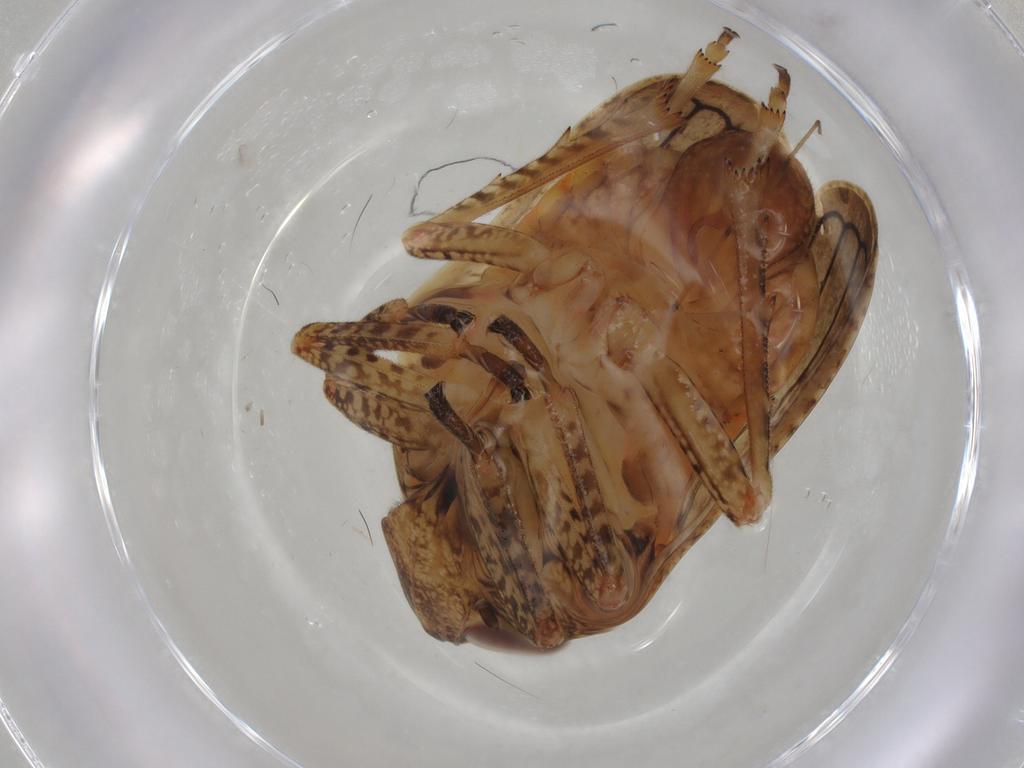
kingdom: Animalia
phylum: Arthropoda
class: Insecta
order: Hemiptera
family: Tropiduchidae
